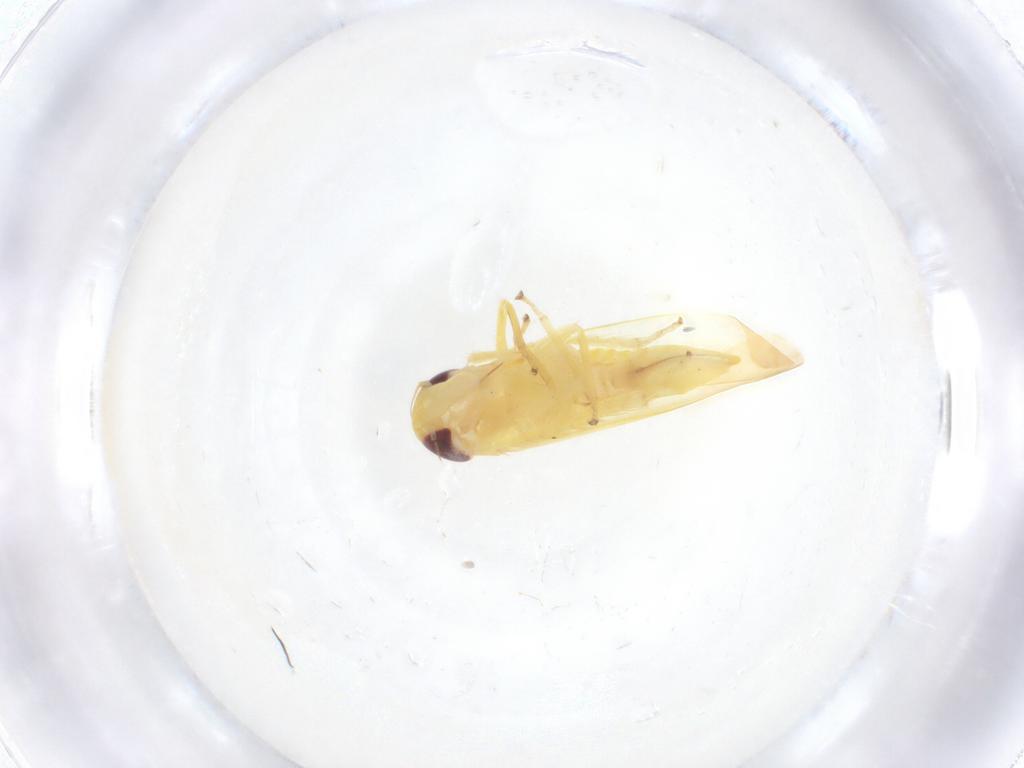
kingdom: Animalia
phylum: Arthropoda
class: Insecta
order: Hemiptera
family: Cicadellidae
